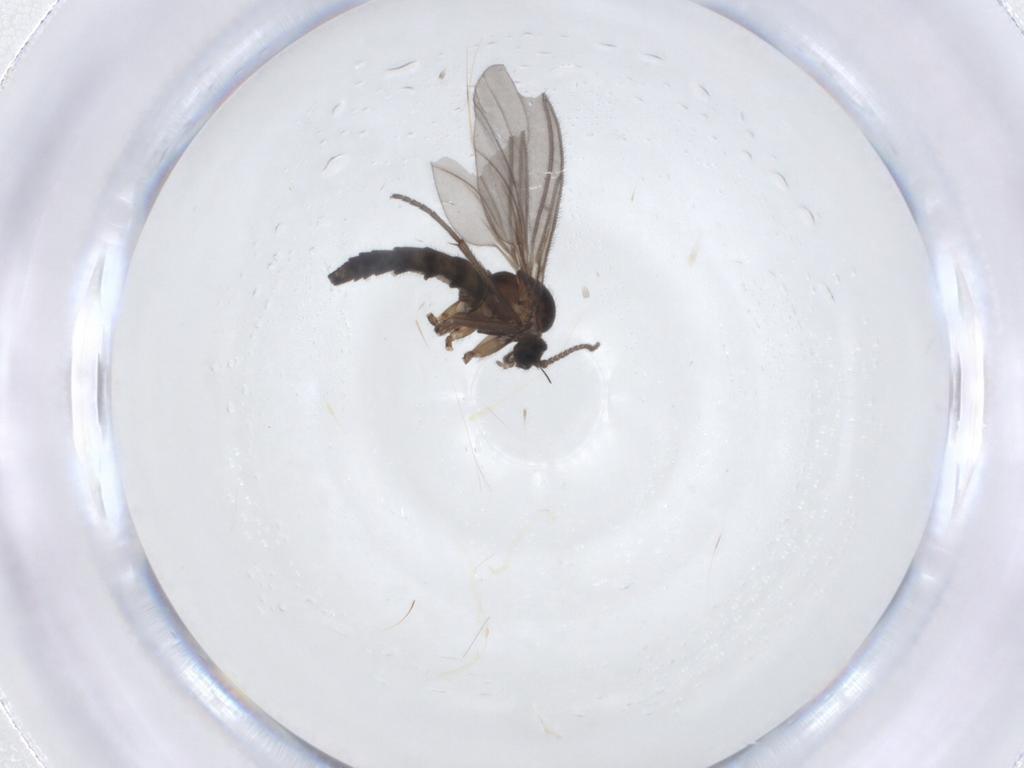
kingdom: Animalia
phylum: Arthropoda
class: Insecta
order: Diptera
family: Sciaridae
